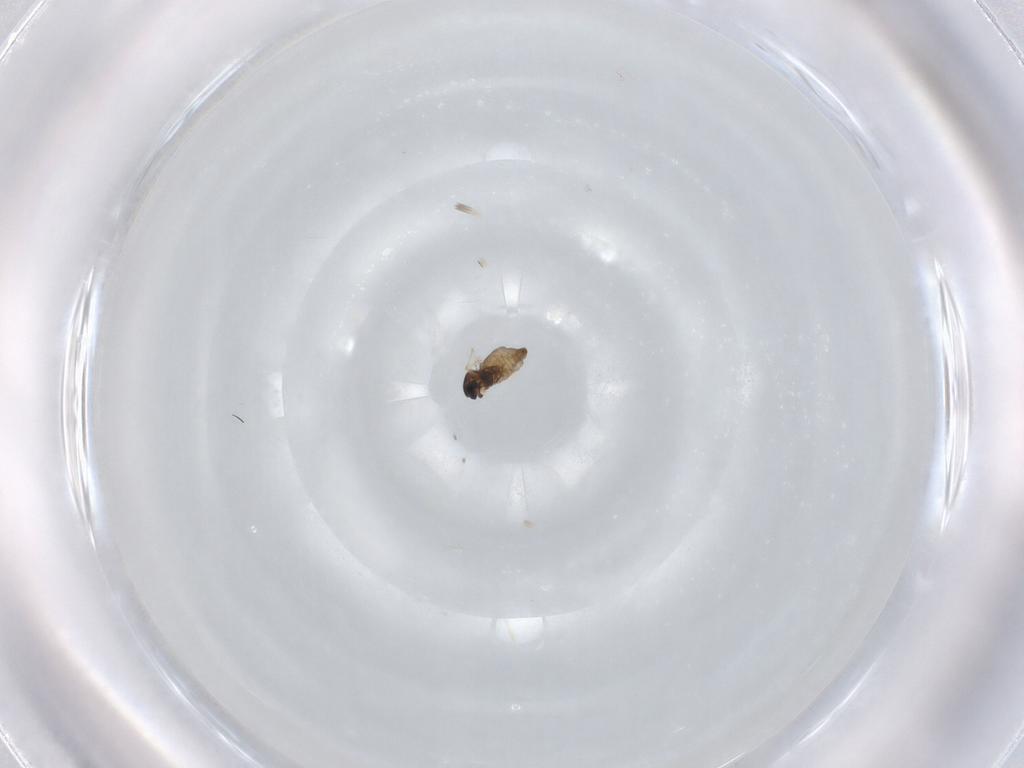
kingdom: Animalia
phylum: Arthropoda
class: Insecta
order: Diptera
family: Cecidomyiidae
